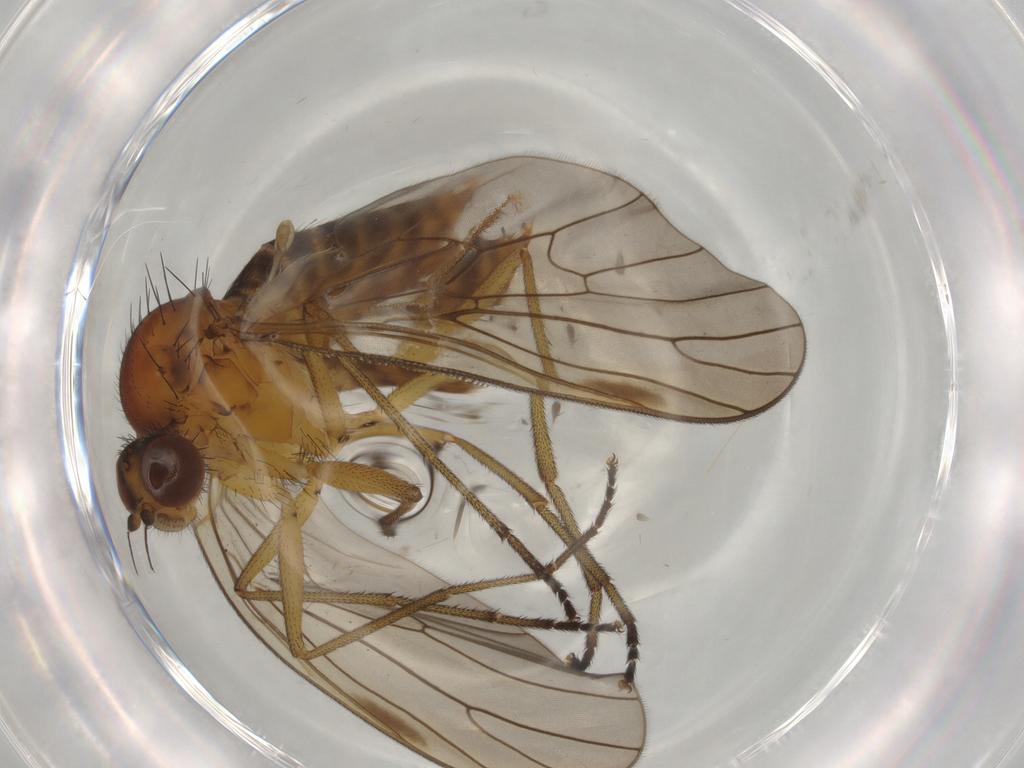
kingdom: Animalia
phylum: Arthropoda
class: Insecta
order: Diptera
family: Brachystomatidae
